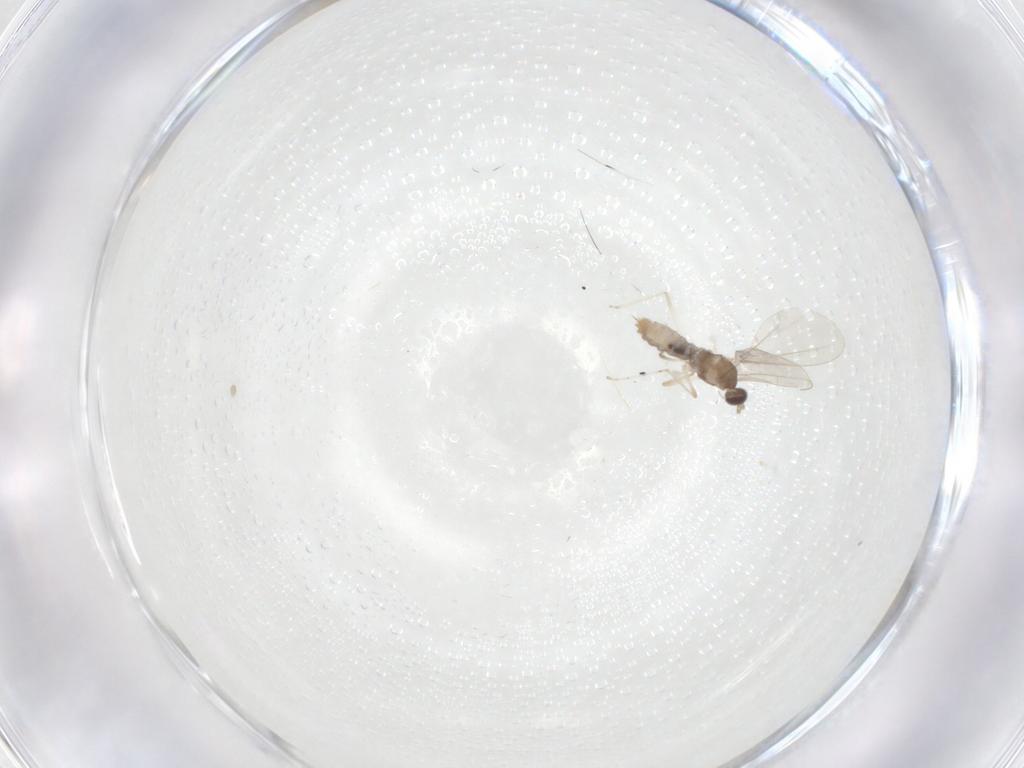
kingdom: Animalia
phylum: Arthropoda
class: Insecta
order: Diptera
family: Cecidomyiidae
